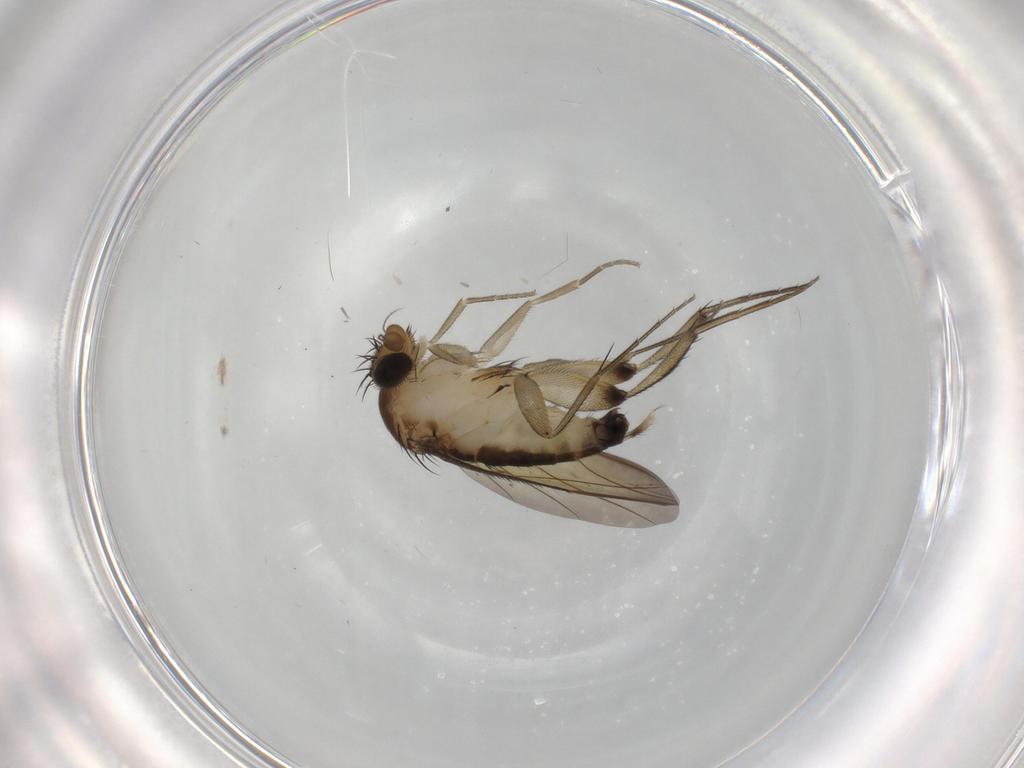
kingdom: Animalia
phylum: Arthropoda
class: Insecta
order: Diptera
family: Phoridae
